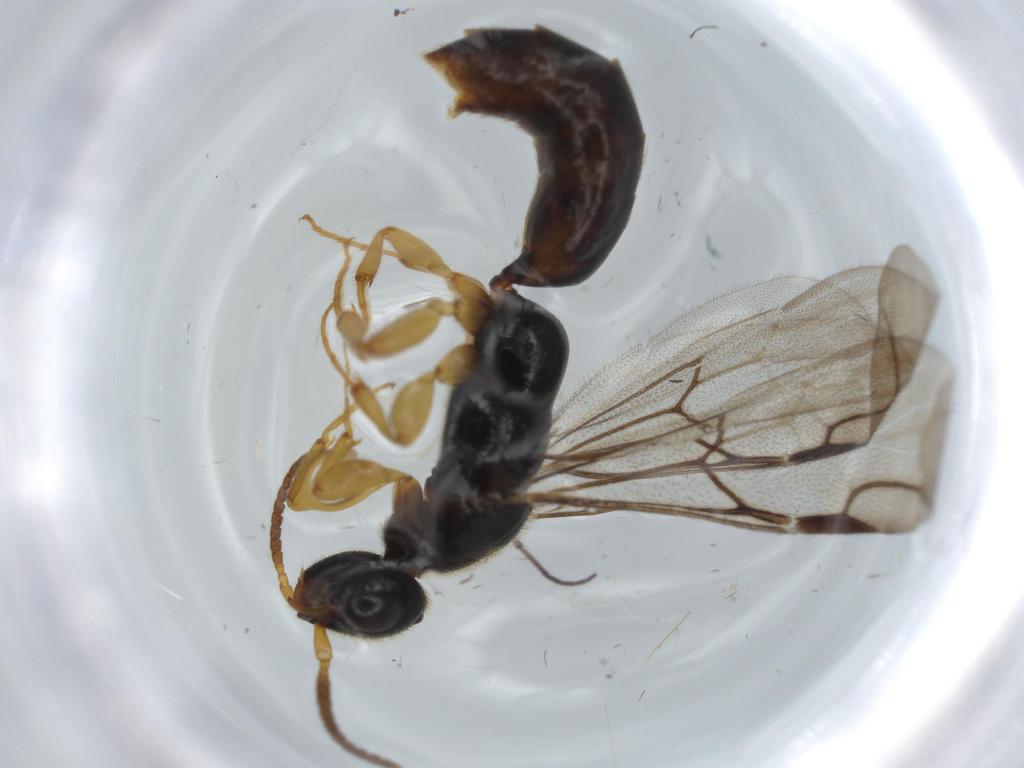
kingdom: Animalia
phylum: Arthropoda
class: Insecta
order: Hymenoptera
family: Bethylidae
